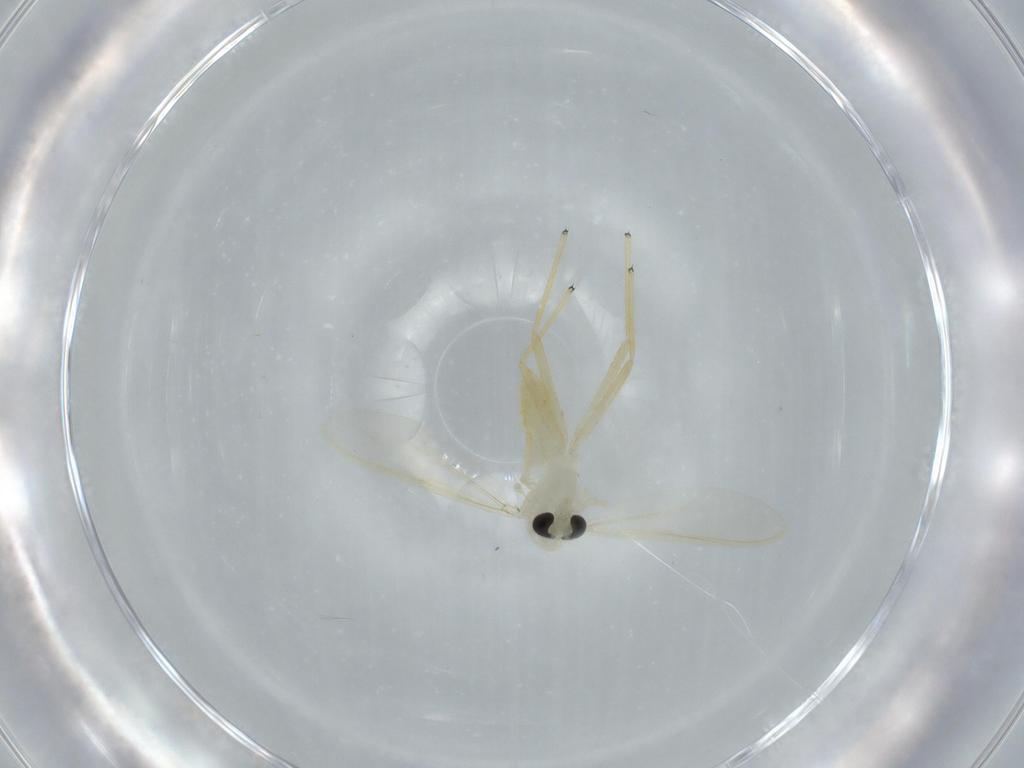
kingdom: Animalia
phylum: Arthropoda
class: Insecta
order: Diptera
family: Chironomidae
